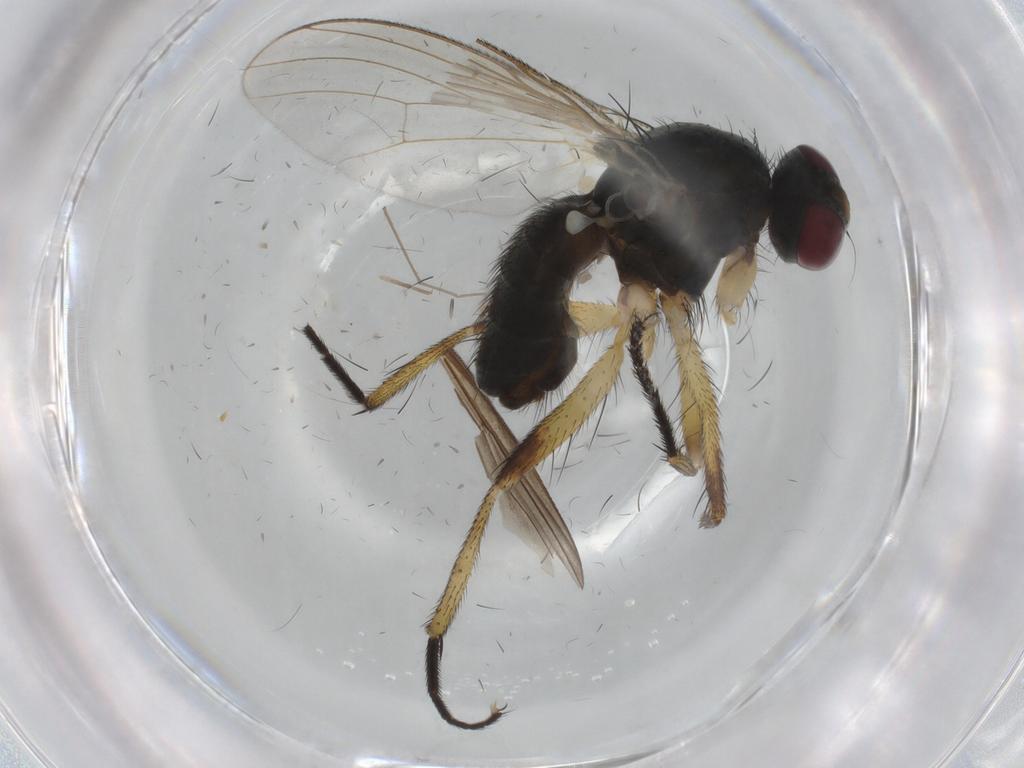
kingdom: Animalia
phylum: Arthropoda
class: Insecta
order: Diptera
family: Lonchaeidae
